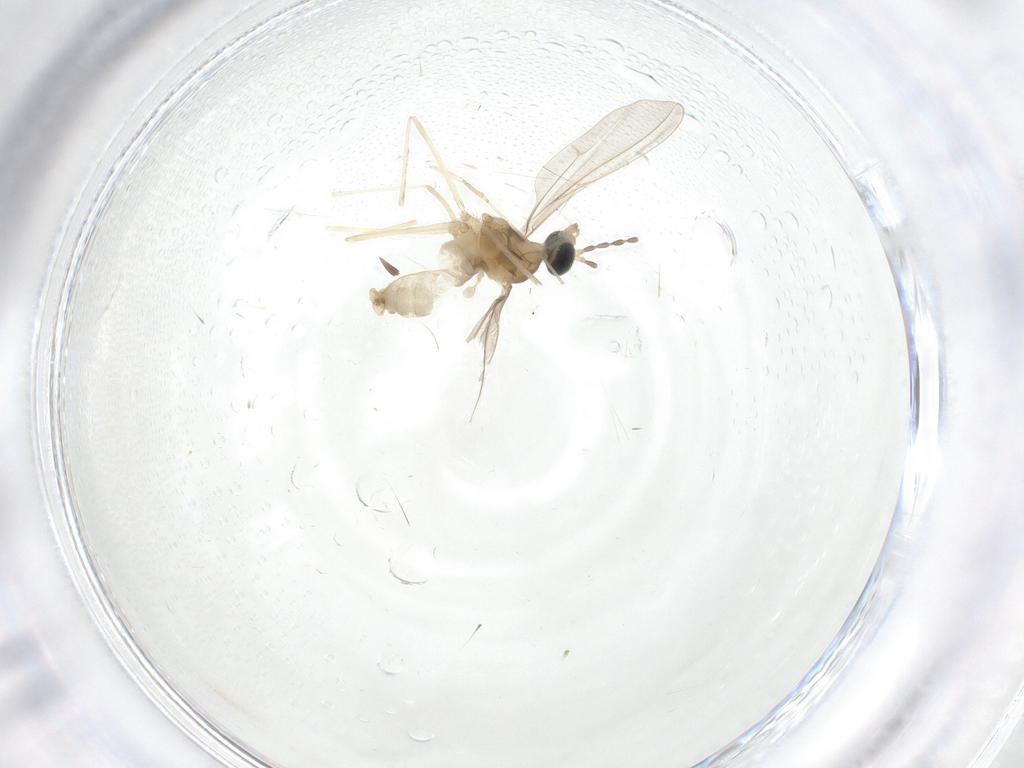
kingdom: Animalia
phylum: Arthropoda
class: Insecta
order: Diptera
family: Cecidomyiidae
